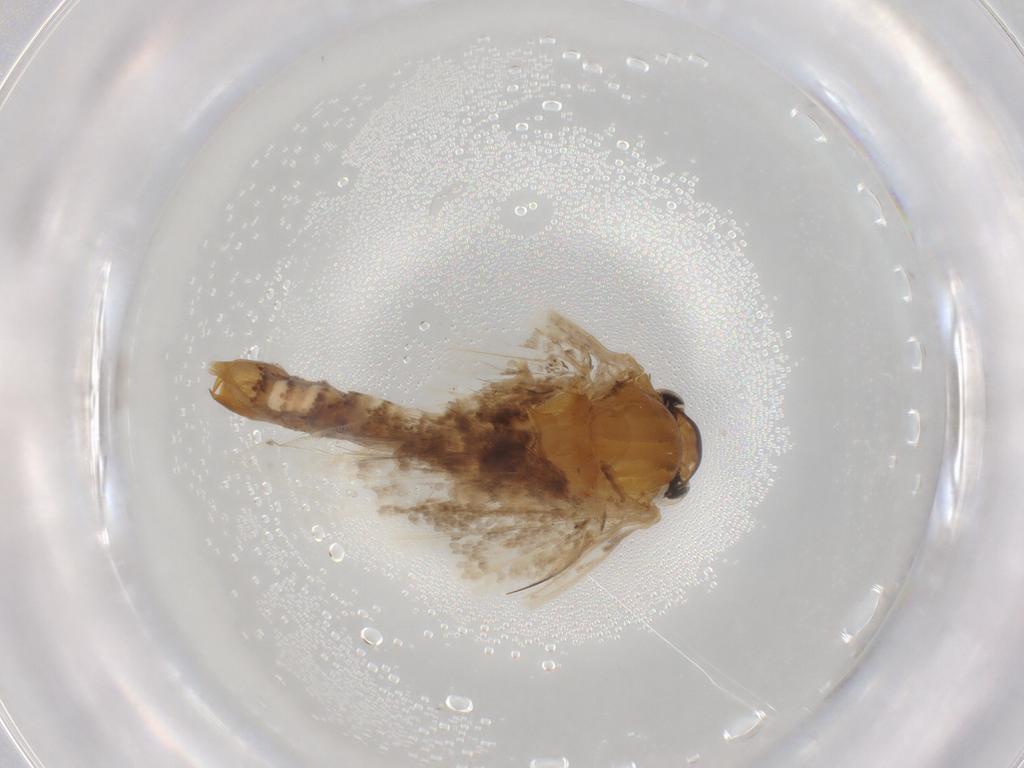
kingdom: Animalia
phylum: Arthropoda
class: Insecta
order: Lepidoptera
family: Nepticulidae
